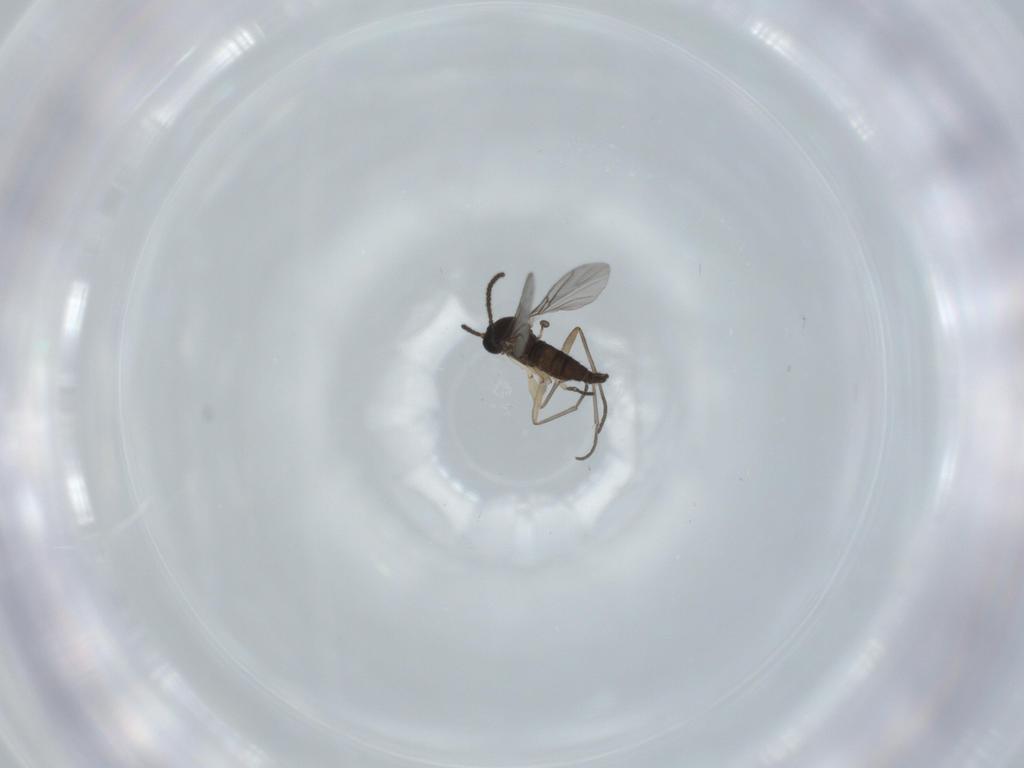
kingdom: Animalia
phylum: Arthropoda
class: Insecta
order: Diptera
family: Sciaridae
